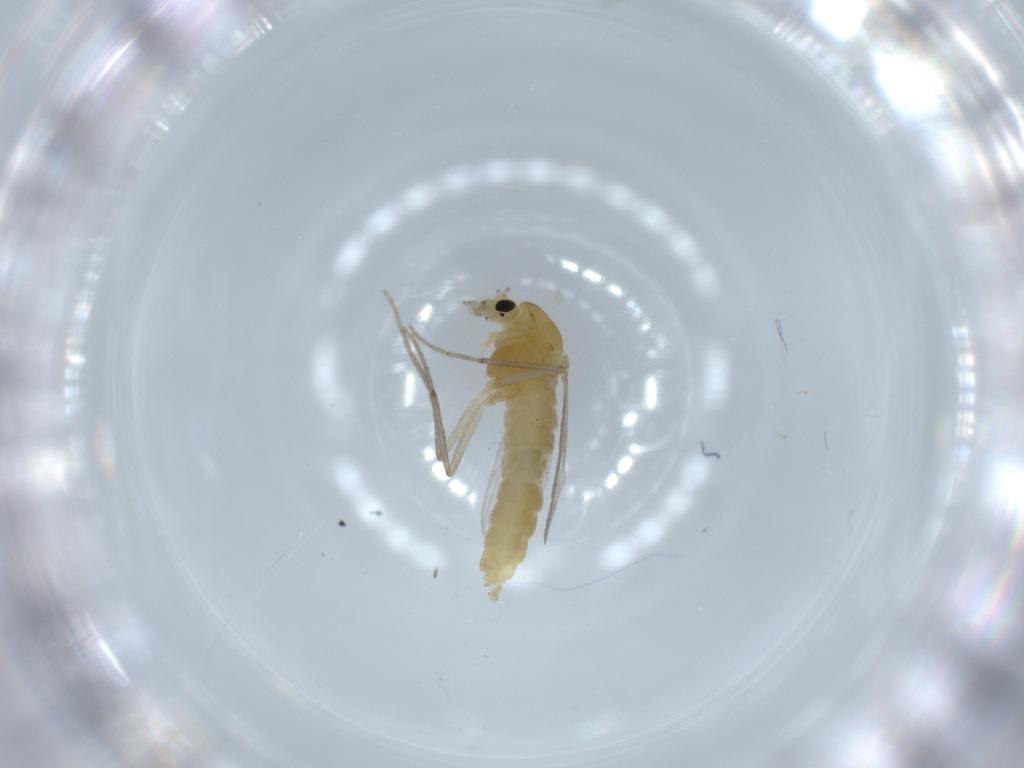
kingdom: Animalia
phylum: Arthropoda
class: Insecta
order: Diptera
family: Chironomidae
